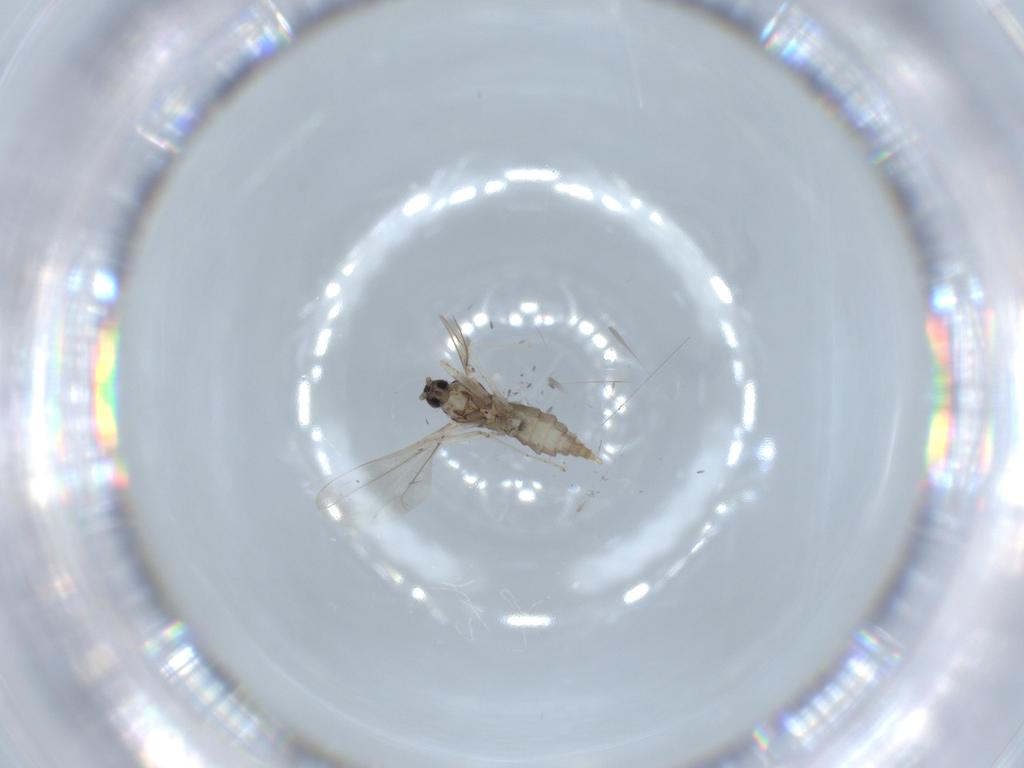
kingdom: Animalia
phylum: Arthropoda
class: Insecta
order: Diptera
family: Cecidomyiidae
